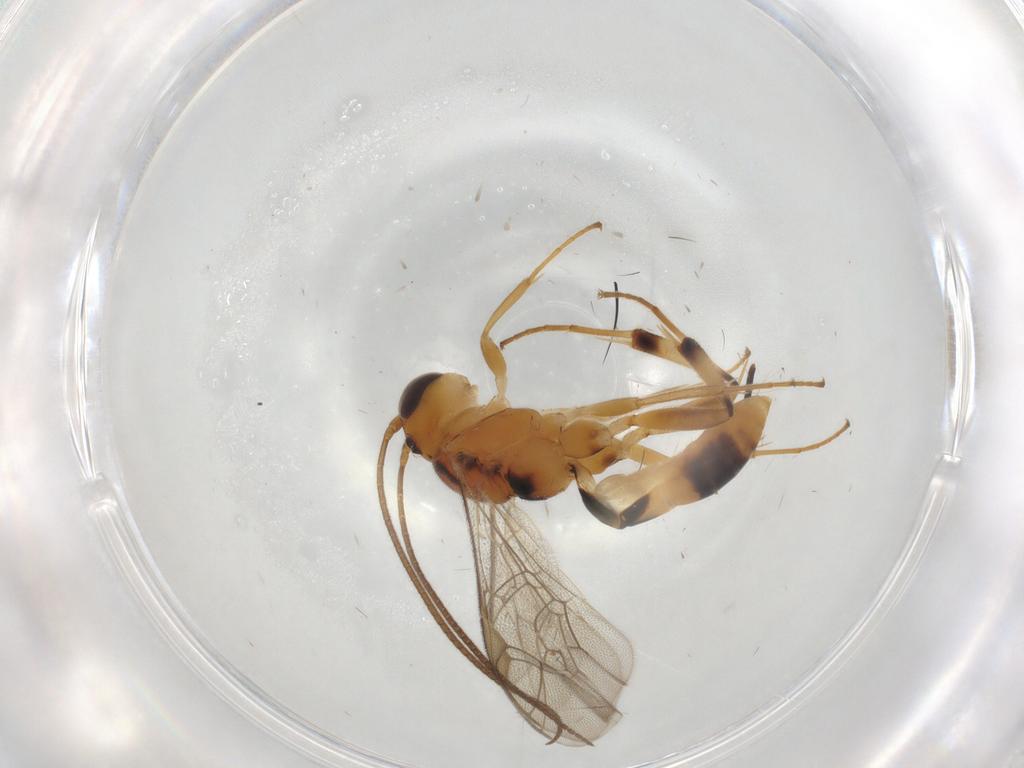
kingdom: Animalia
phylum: Arthropoda
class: Insecta
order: Hymenoptera
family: Ichneumonidae
